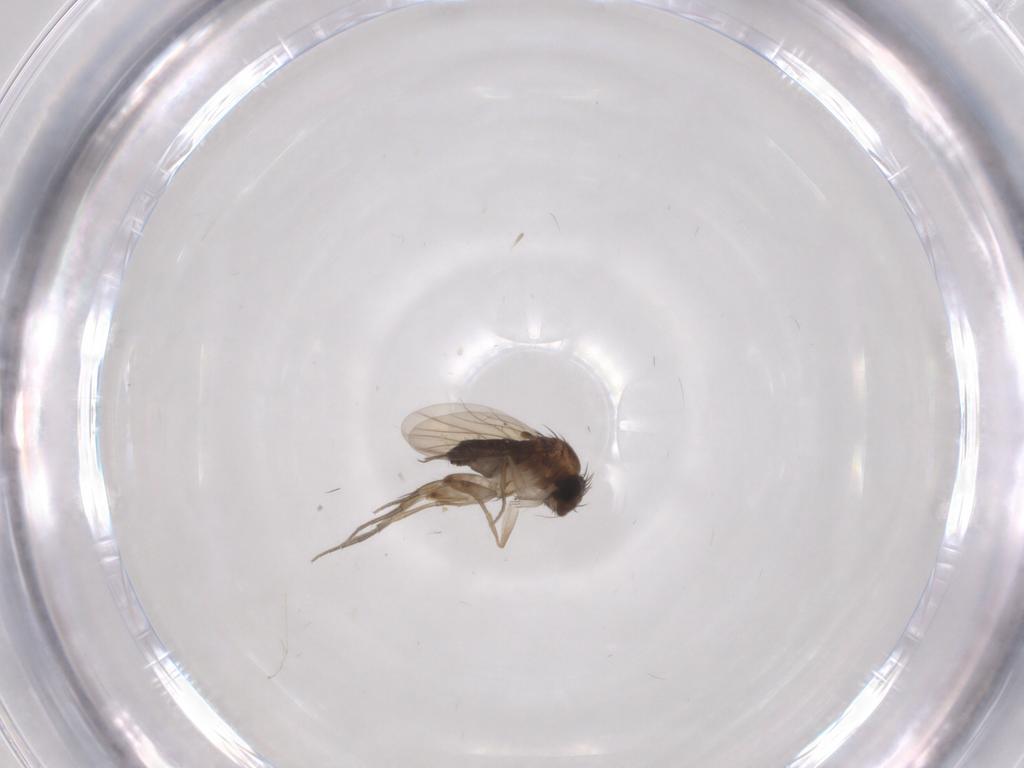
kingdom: Animalia
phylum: Arthropoda
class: Insecta
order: Diptera
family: Phoridae
